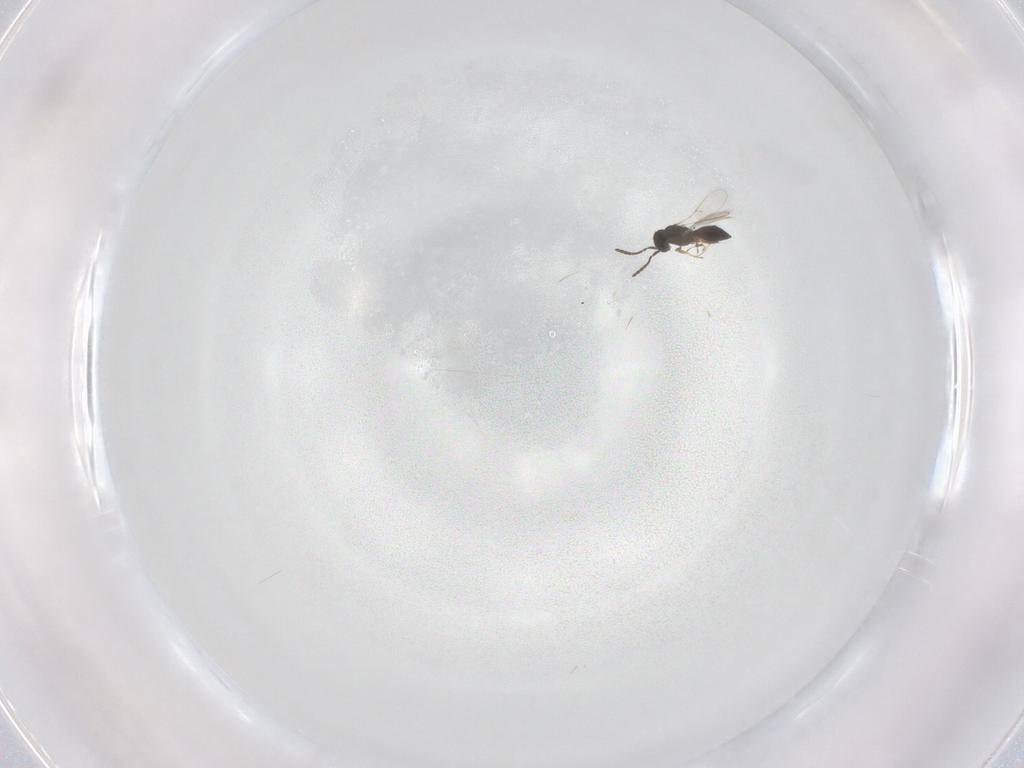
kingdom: Animalia
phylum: Arthropoda
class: Insecta
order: Hymenoptera
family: Scelionidae
